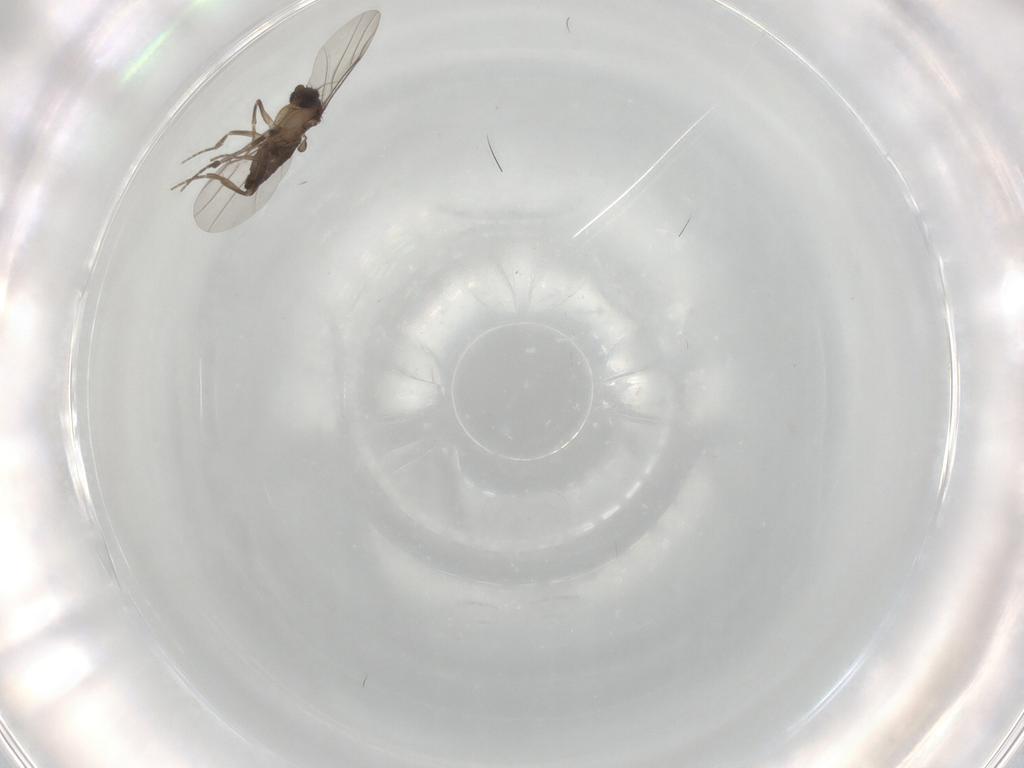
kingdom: Animalia
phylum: Arthropoda
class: Insecta
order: Diptera
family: Cecidomyiidae
